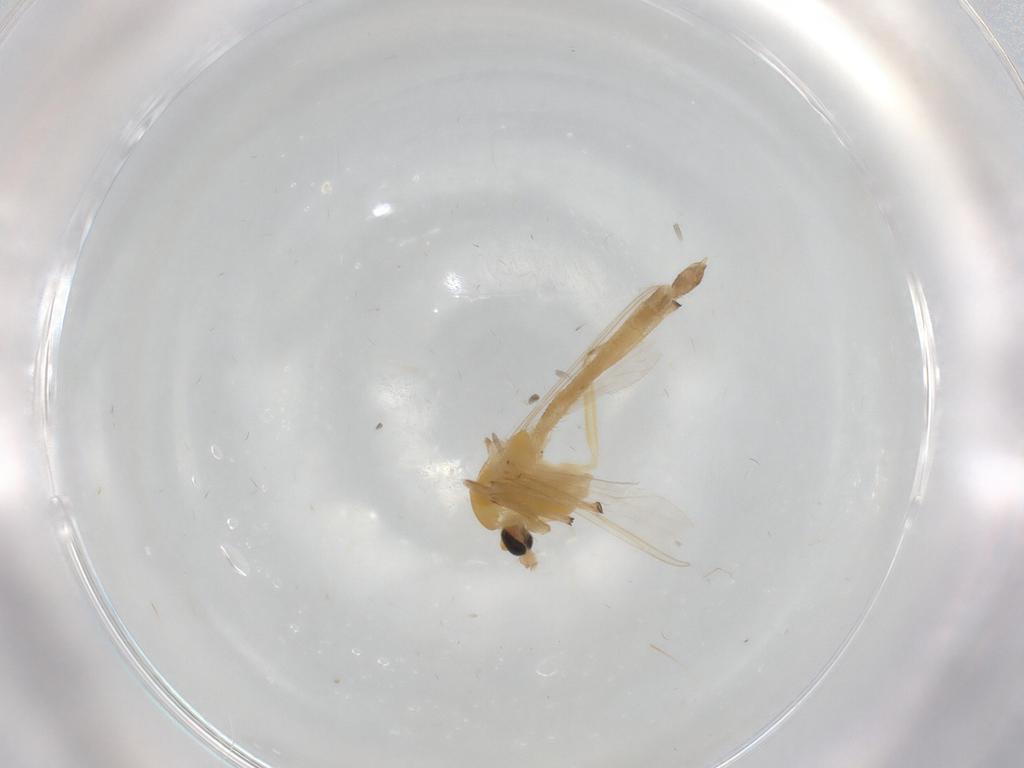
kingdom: Animalia
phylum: Arthropoda
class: Insecta
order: Diptera
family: Chironomidae
